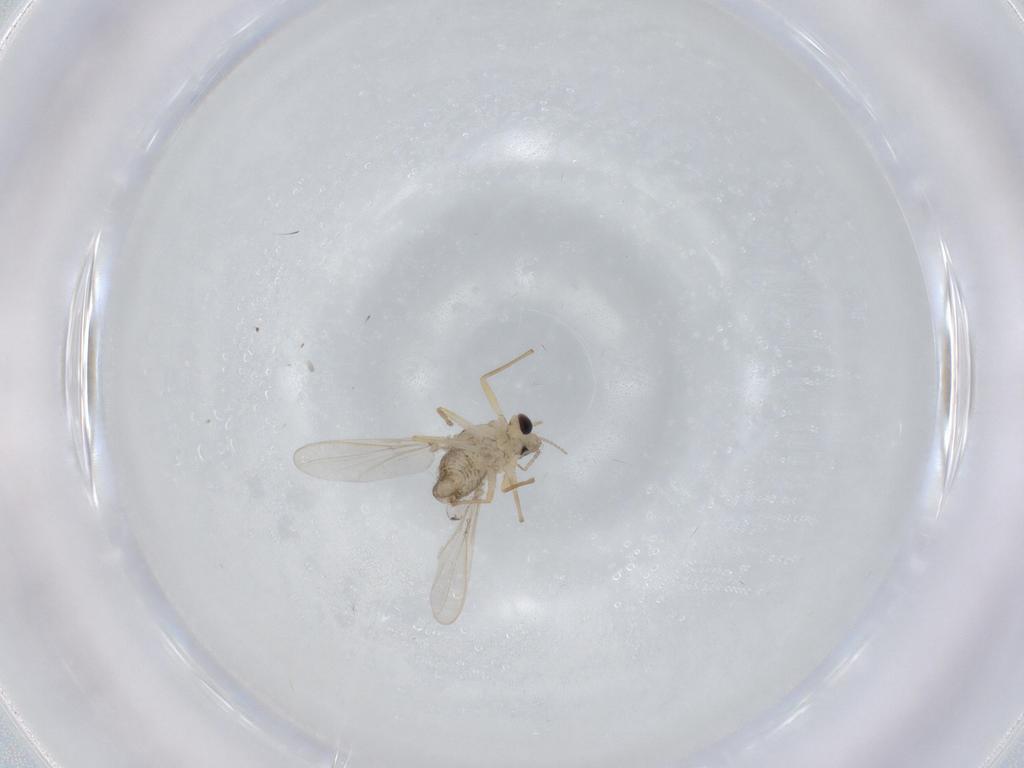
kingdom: Animalia
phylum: Arthropoda
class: Insecta
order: Diptera
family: Chironomidae
